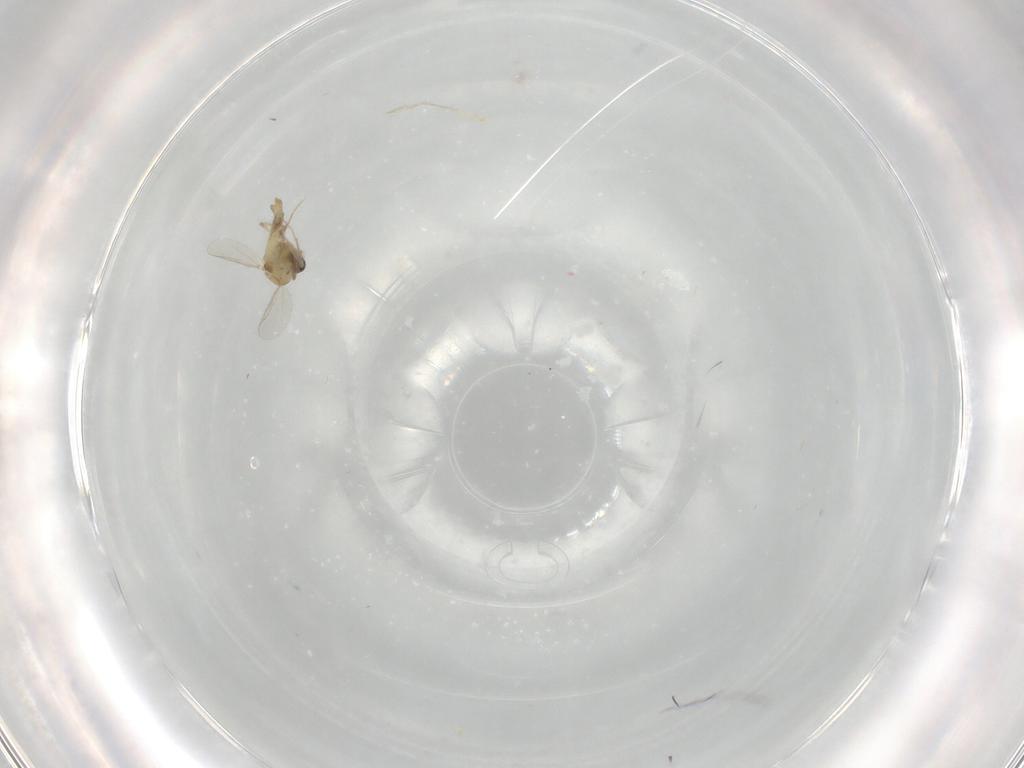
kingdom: Animalia
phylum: Arthropoda
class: Insecta
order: Diptera
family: Chironomidae
